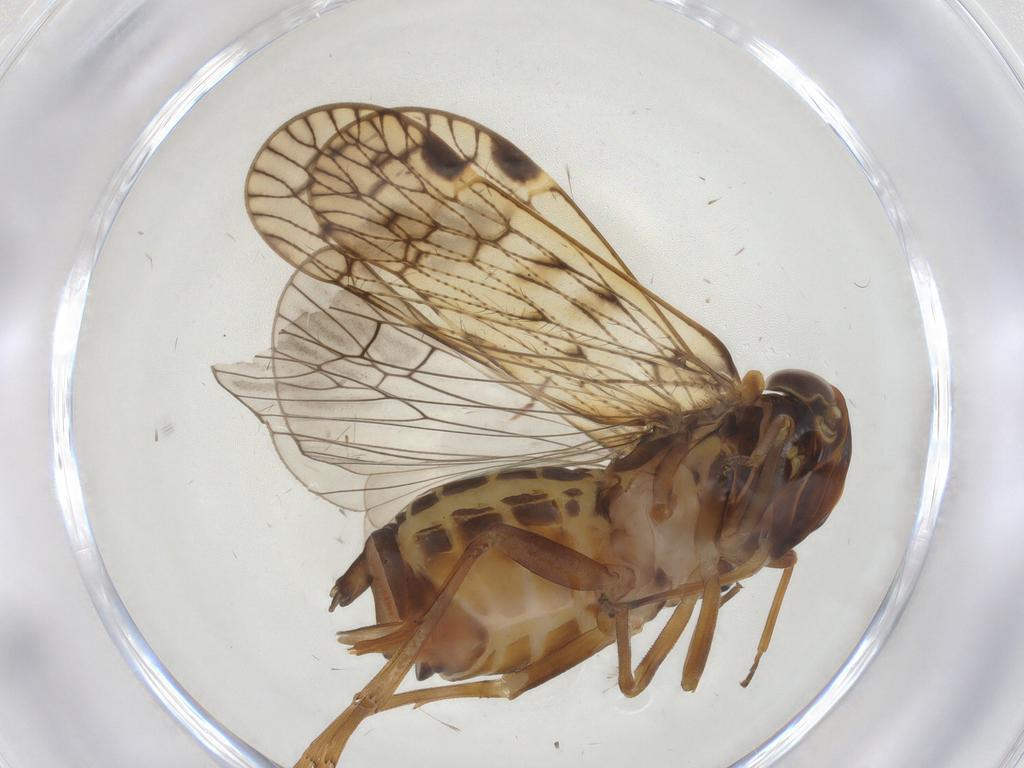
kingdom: Animalia
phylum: Arthropoda
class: Insecta
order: Hemiptera
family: Cixiidae
